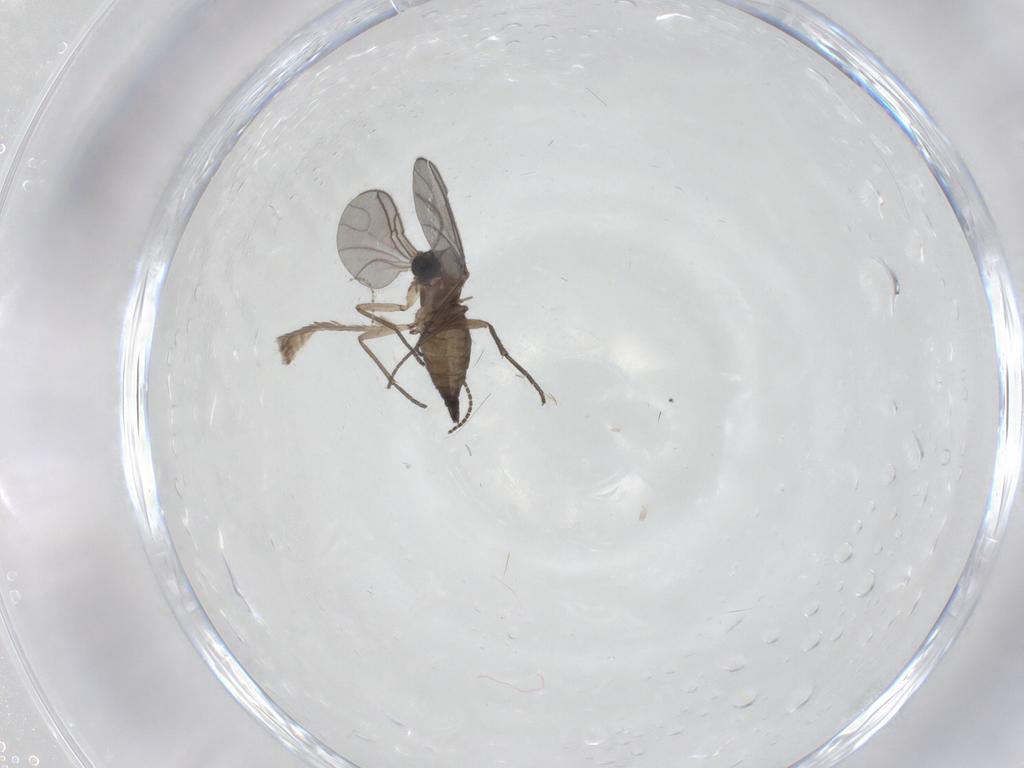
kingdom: Animalia
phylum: Arthropoda
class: Insecta
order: Diptera
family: Sciaridae
